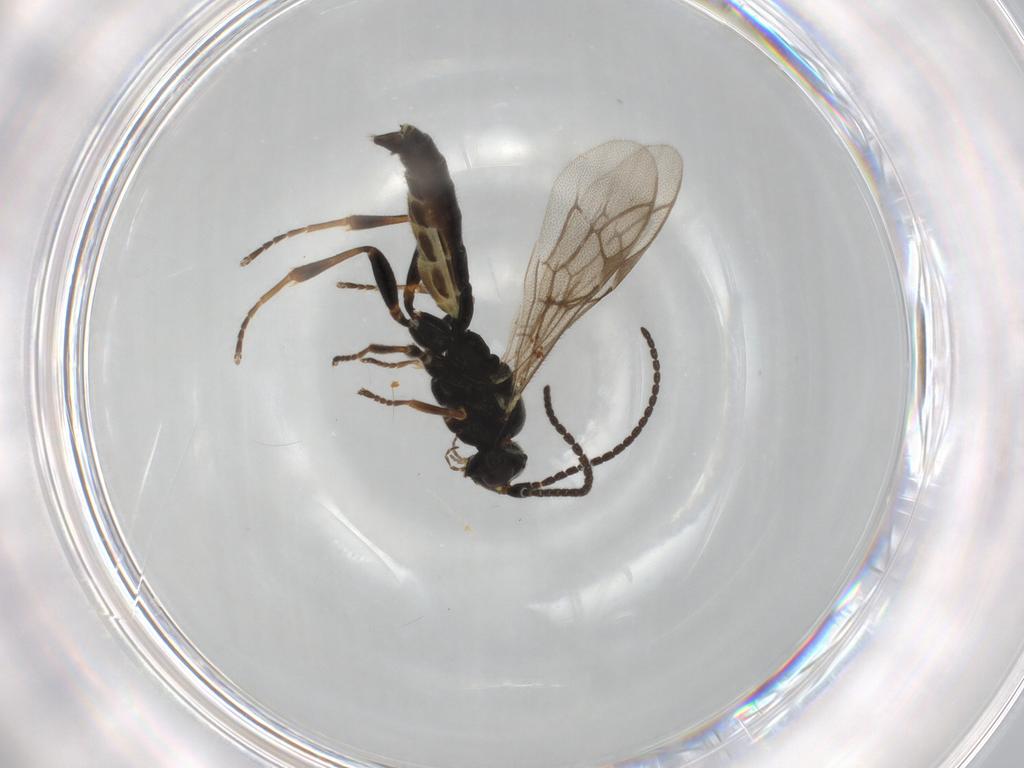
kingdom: Animalia
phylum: Arthropoda
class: Insecta
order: Hymenoptera
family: Ichneumonidae
